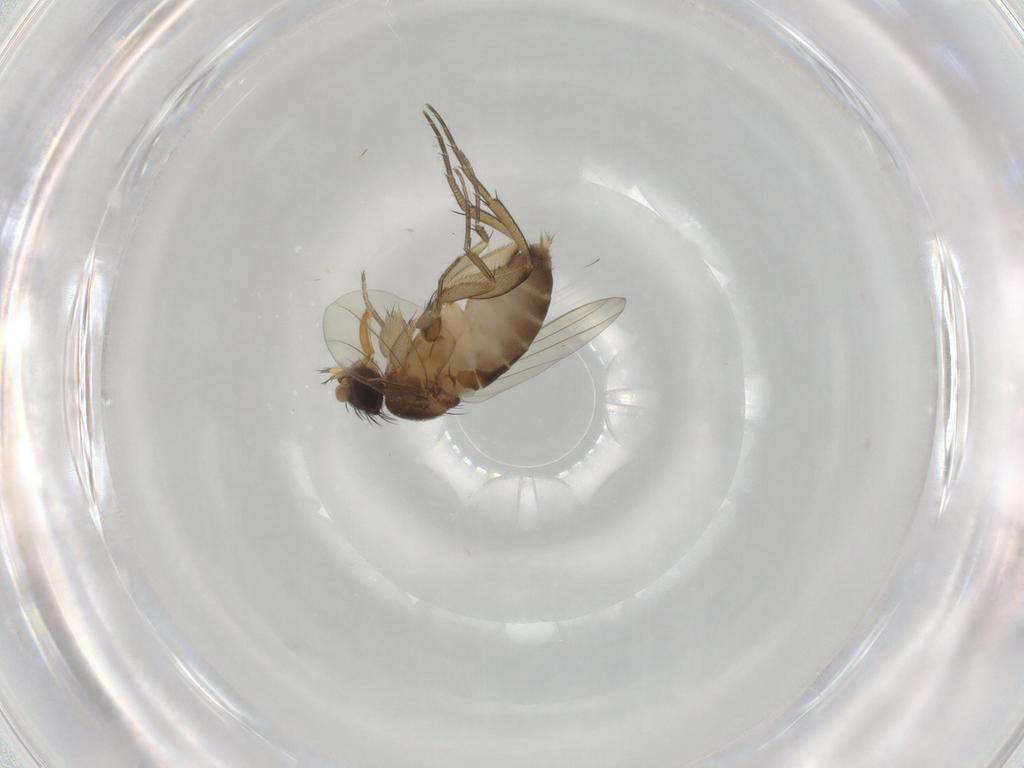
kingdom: Animalia
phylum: Arthropoda
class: Insecta
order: Diptera
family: Phoridae
